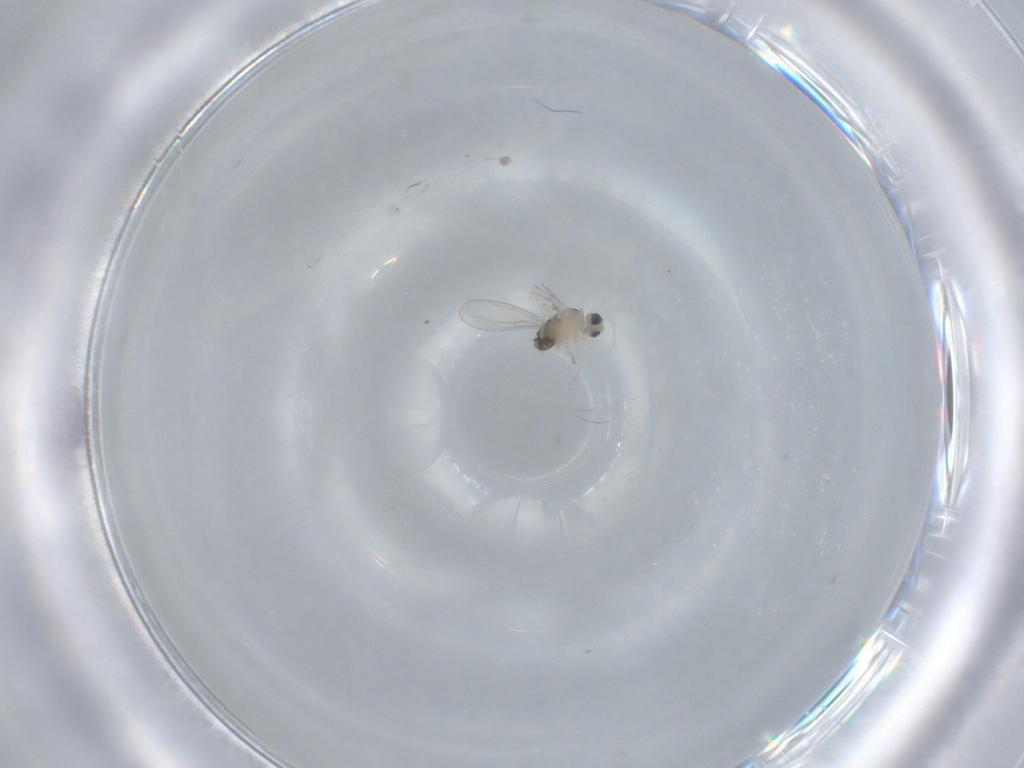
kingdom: Animalia
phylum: Arthropoda
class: Insecta
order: Diptera
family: Cecidomyiidae
